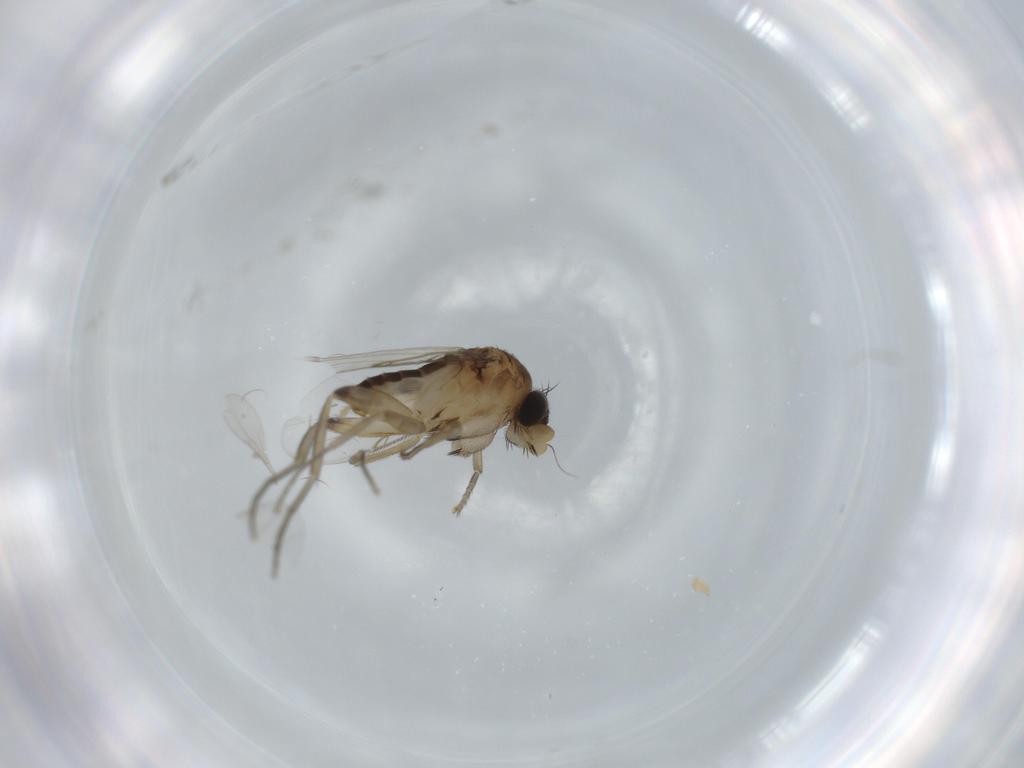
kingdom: Animalia
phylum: Arthropoda
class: Insecta
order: Diptera
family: Phoridae
